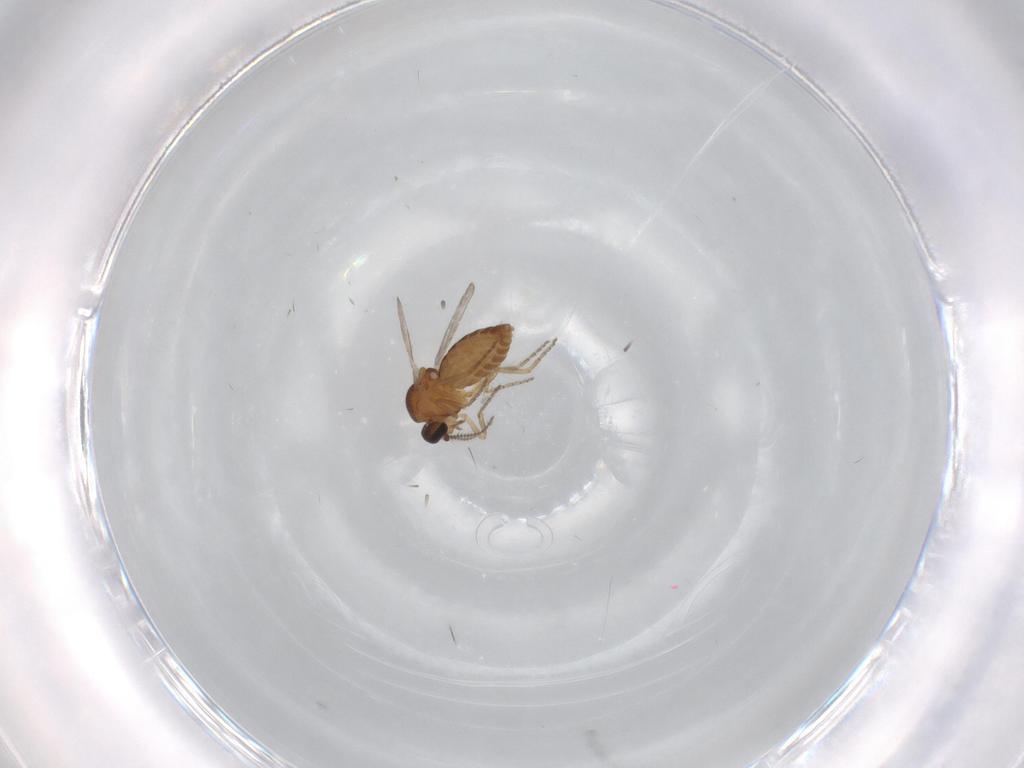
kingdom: Animalia
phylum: Arthropoda
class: Insecta
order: Diptera
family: Ceratopogonidae
